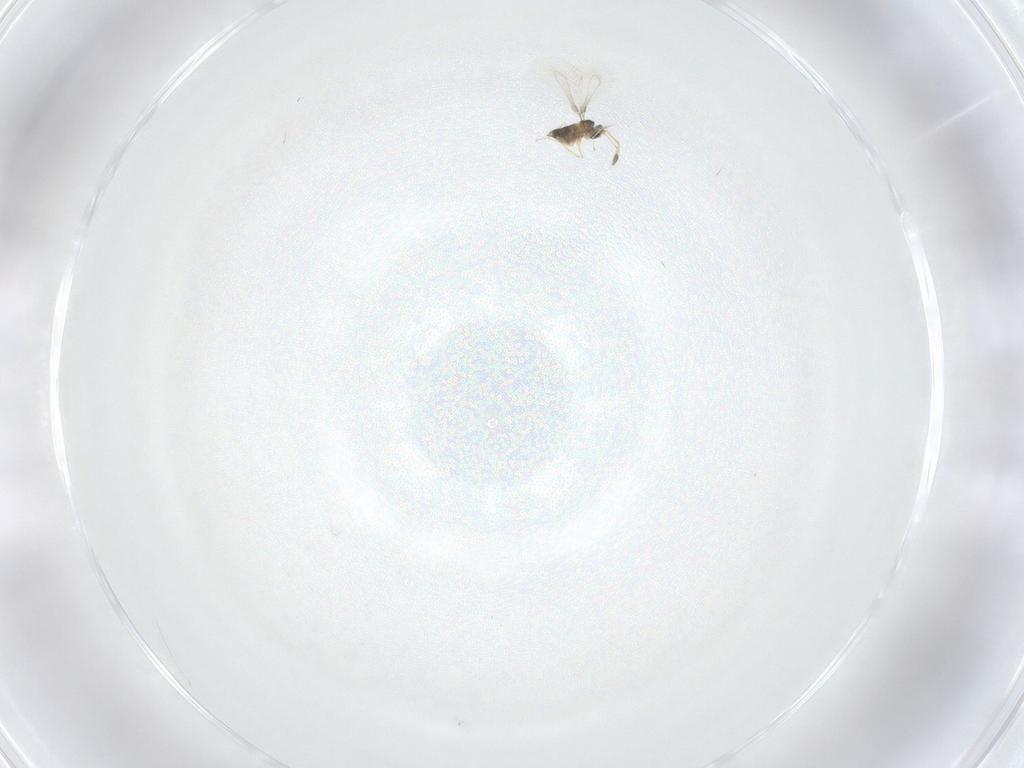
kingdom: Animalia
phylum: Arthropoda
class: Insecta
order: Hymenoptera
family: Mymaridae
